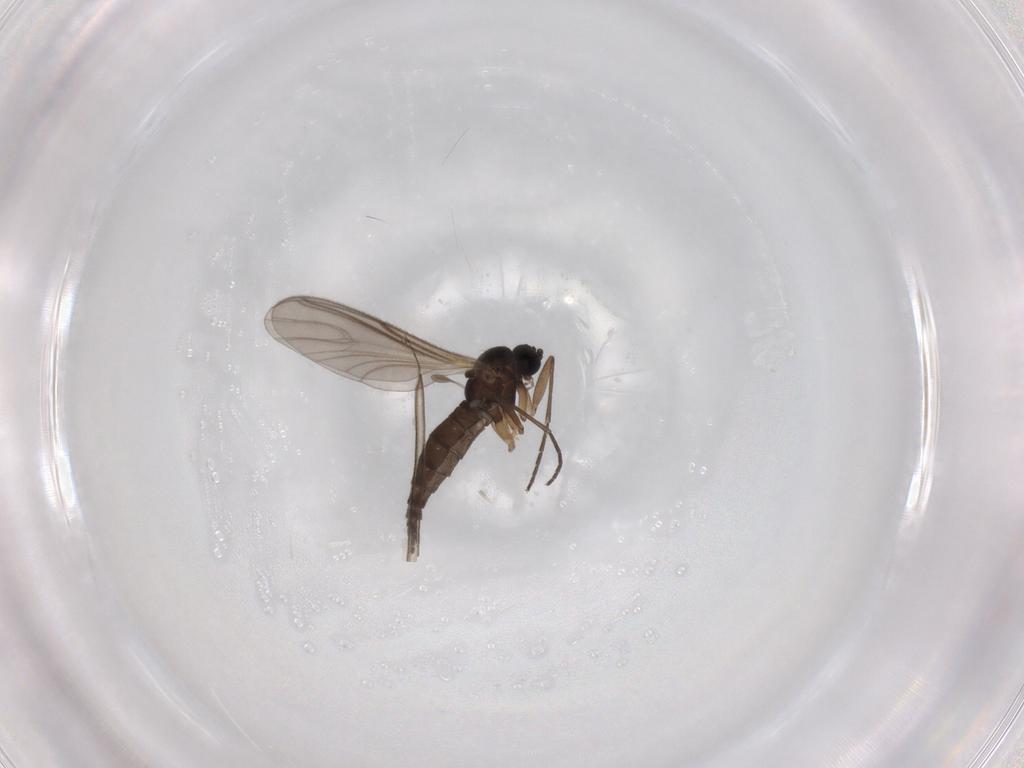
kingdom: Animalia
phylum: Arthropoda
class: Insecta
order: Diptera
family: Sciaridae
